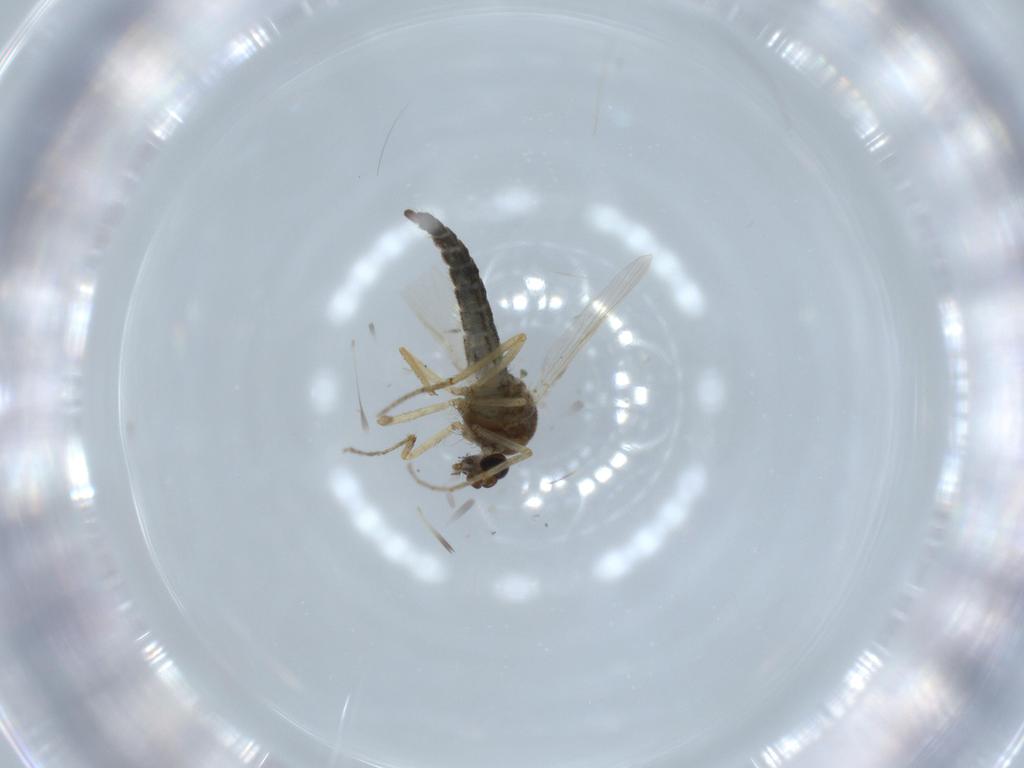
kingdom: Animalia
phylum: Arthropoda
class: Insecta
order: Diptera
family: Ceratopogonidae
